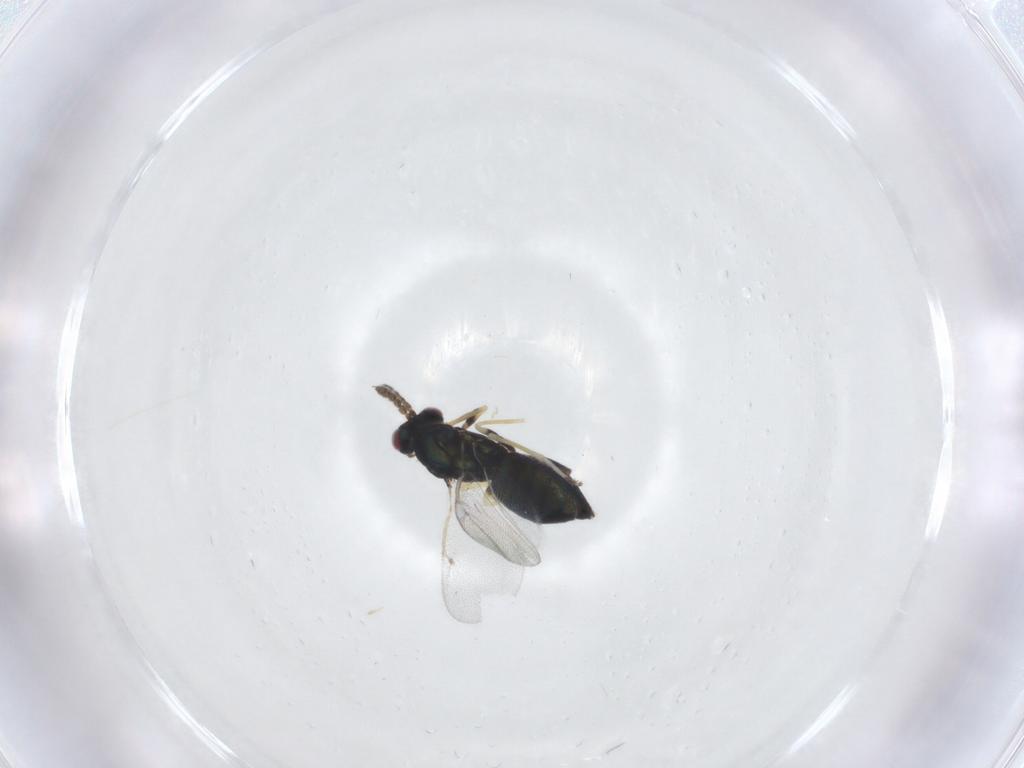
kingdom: Animalia
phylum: Arthropoda
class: Insecta
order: Hymenoptera
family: Eulophidae
